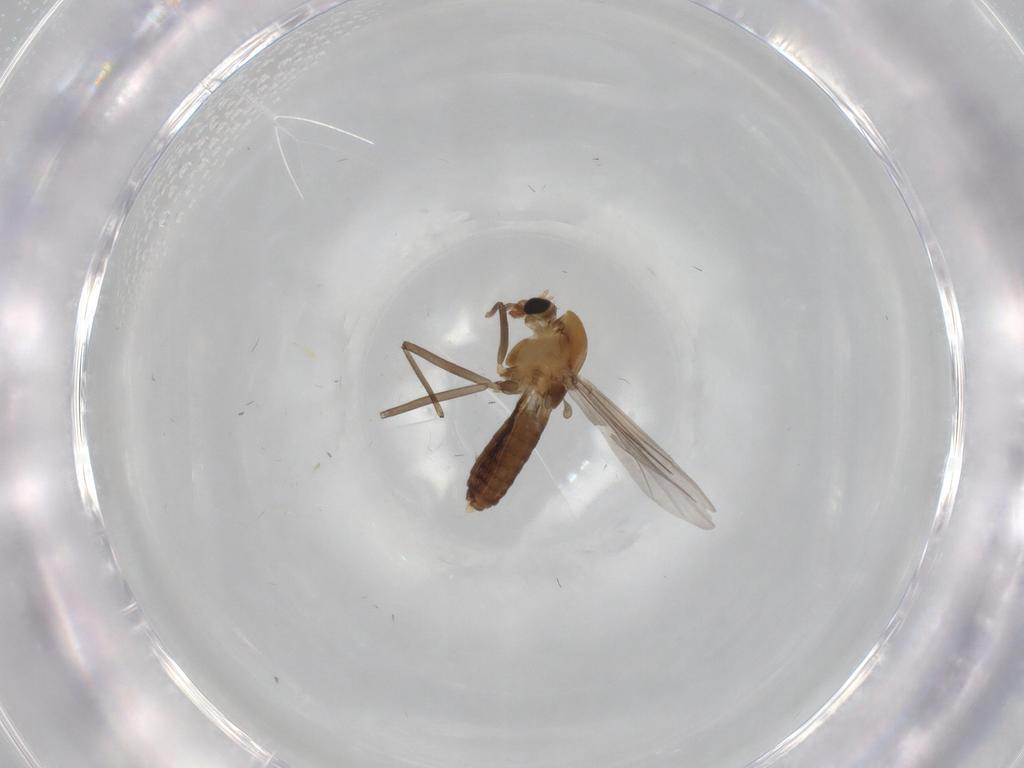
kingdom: Animalia
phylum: Arthropoda
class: Insecta
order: Diptera
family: Chironomidae
